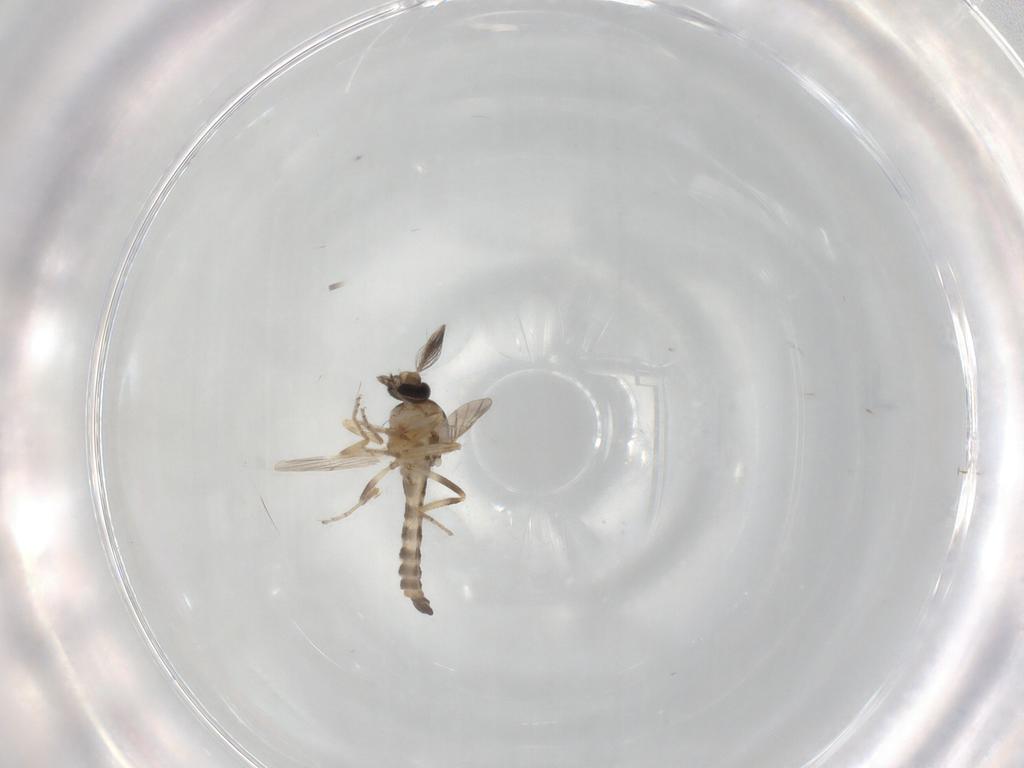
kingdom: Animalia
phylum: Arthropoda
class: Insecta
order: Diptera
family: Ceratopogonidae
